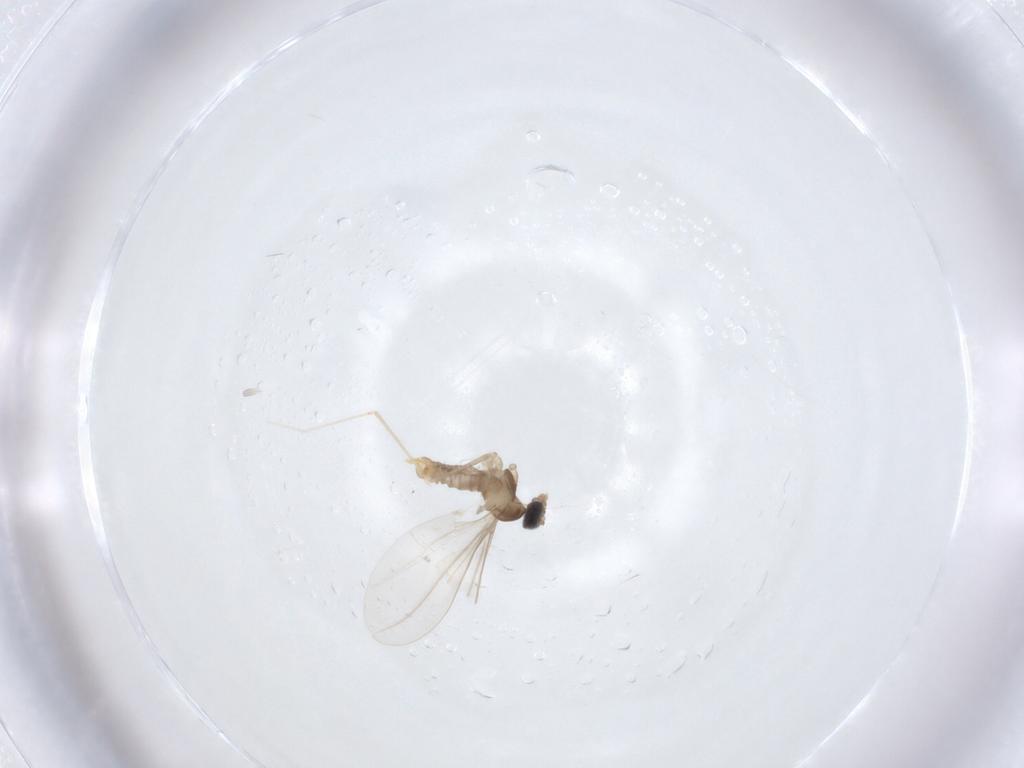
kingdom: Animalia
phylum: Arthropoda
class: Insecta
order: Diptera
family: Cecidomyiidae
